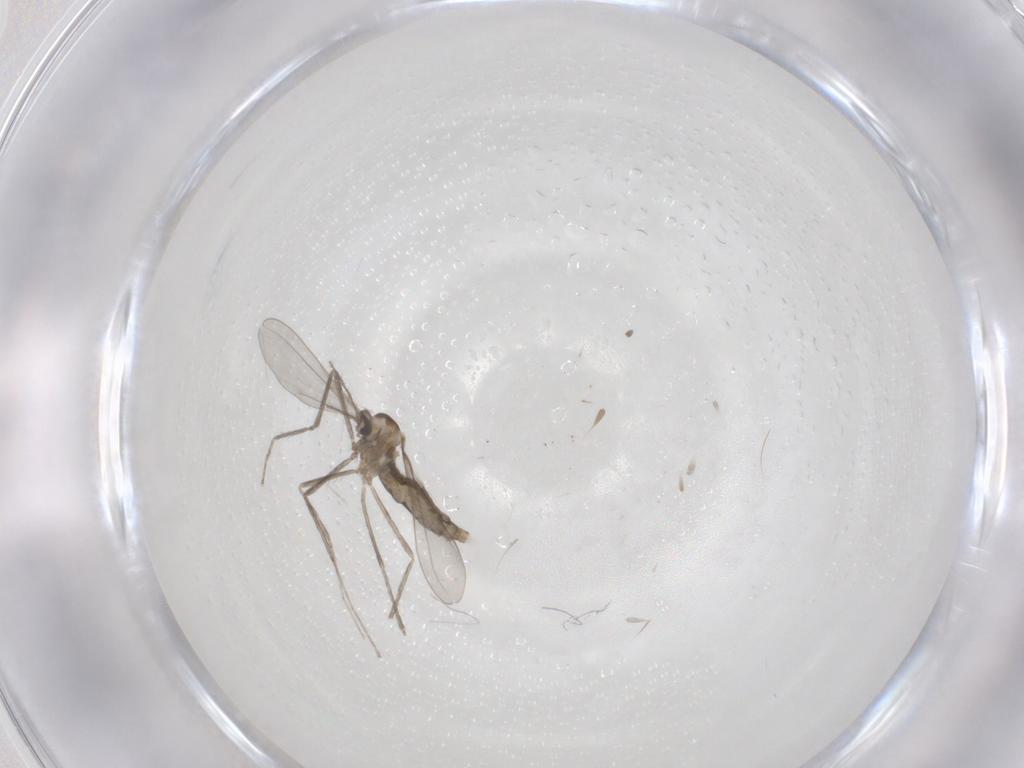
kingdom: Animalia
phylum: Arthropoda
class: Insecta
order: Diptera
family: Cecidomyiidae
